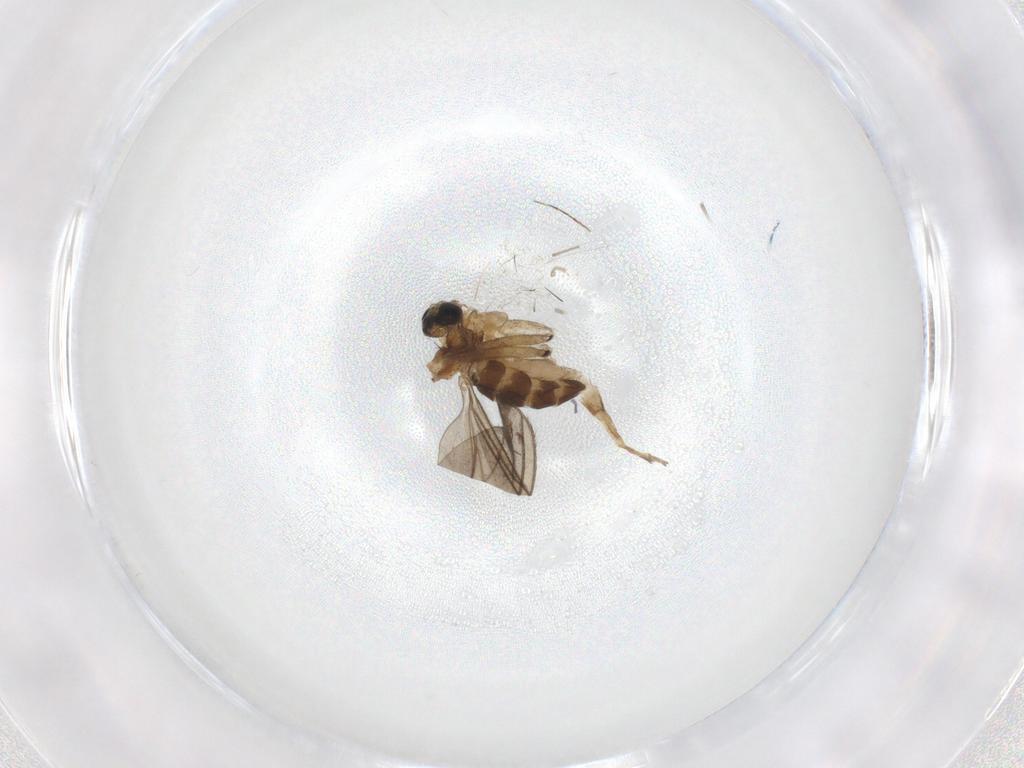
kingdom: Animalia
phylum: Arthropoda
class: Insecta
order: Diptera
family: Sciaridae
